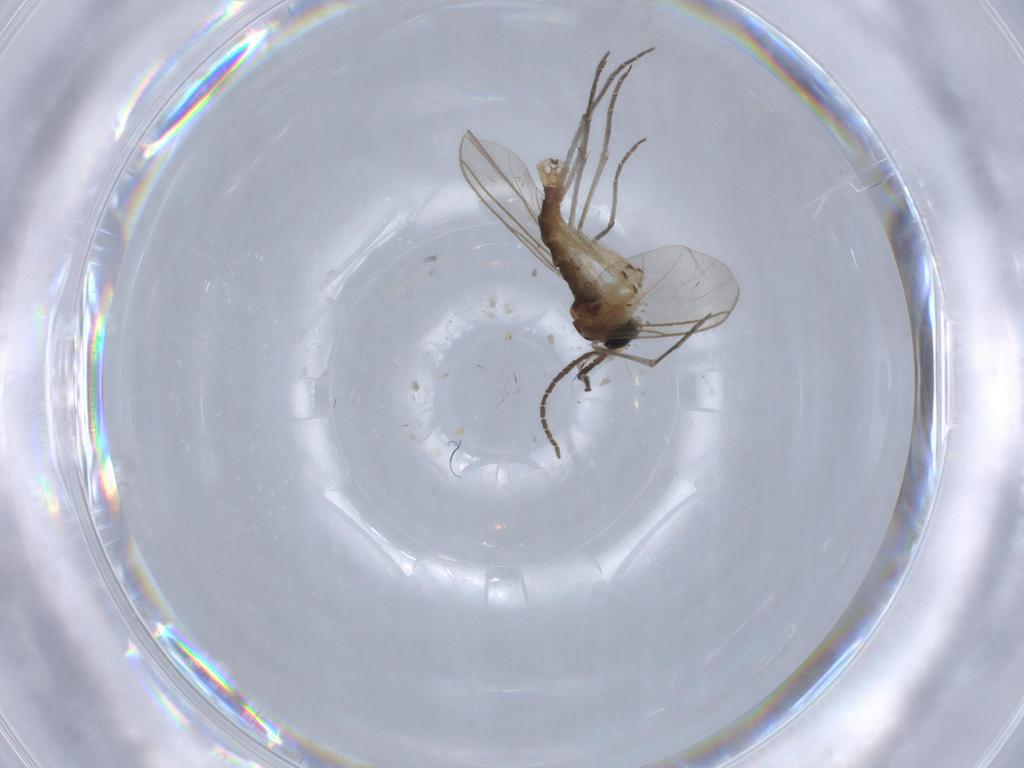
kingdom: Animalia
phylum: Arthropoda
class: Insecta
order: Diptera
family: Sciaridae
